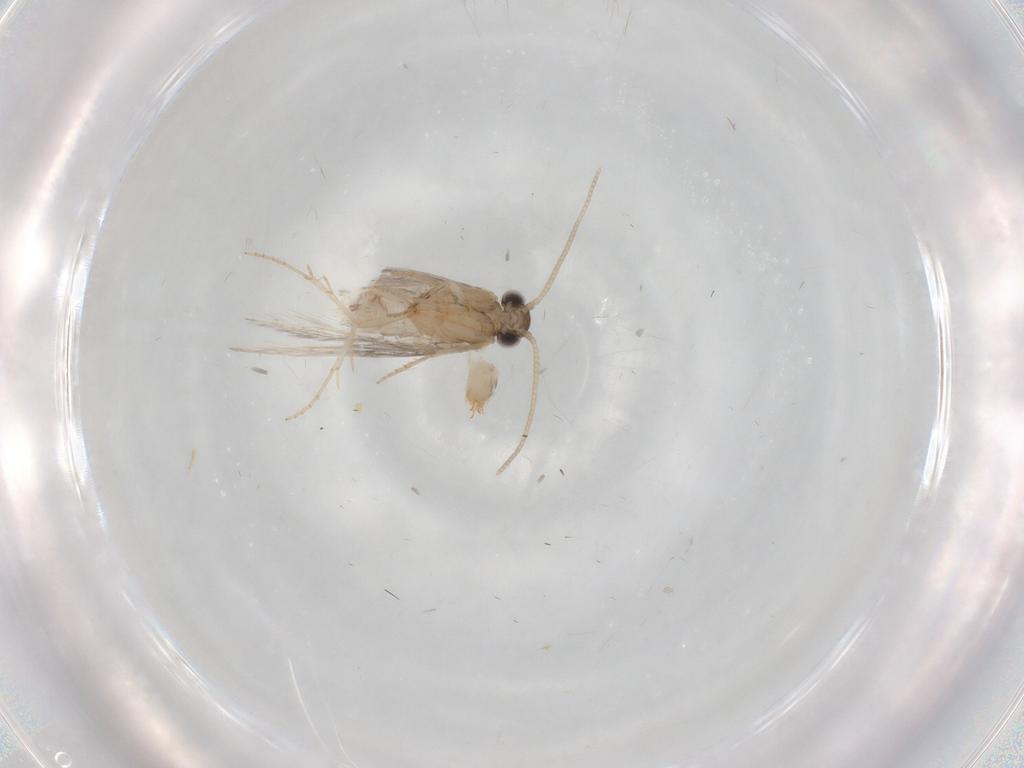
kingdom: Animalia
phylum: Arthropoda
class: Insecta
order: Trichoptera
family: Hydroptilidae
